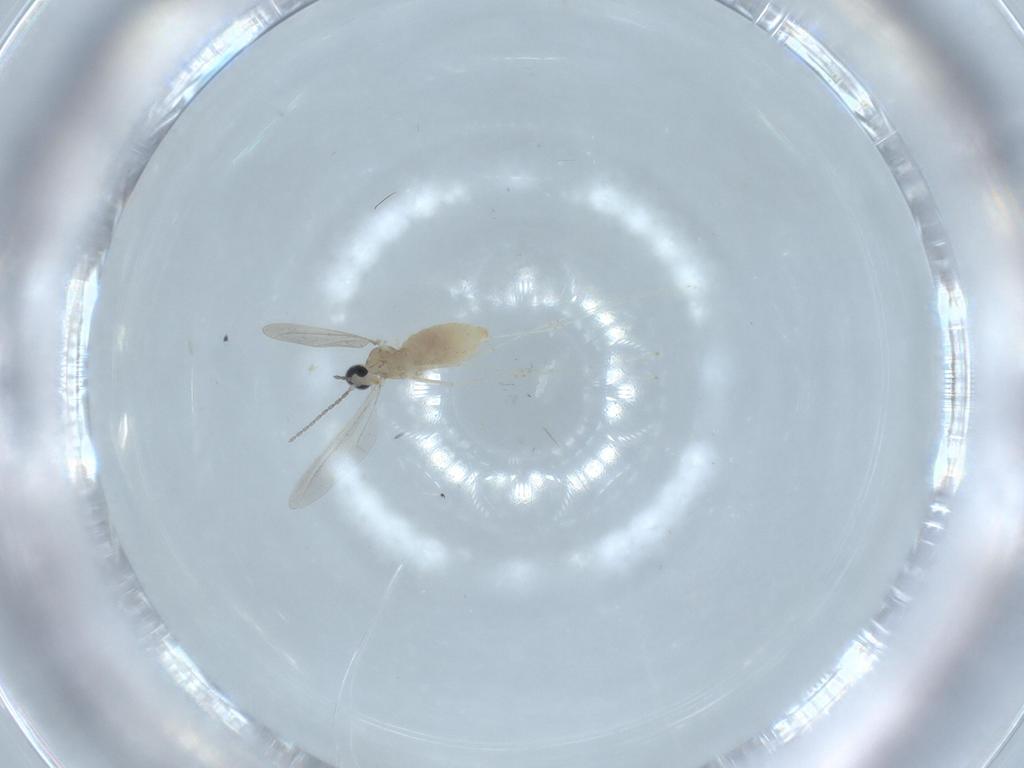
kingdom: Animalia
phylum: Arthropoda
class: Insecta
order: Diptera
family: Cecidomyiidae
